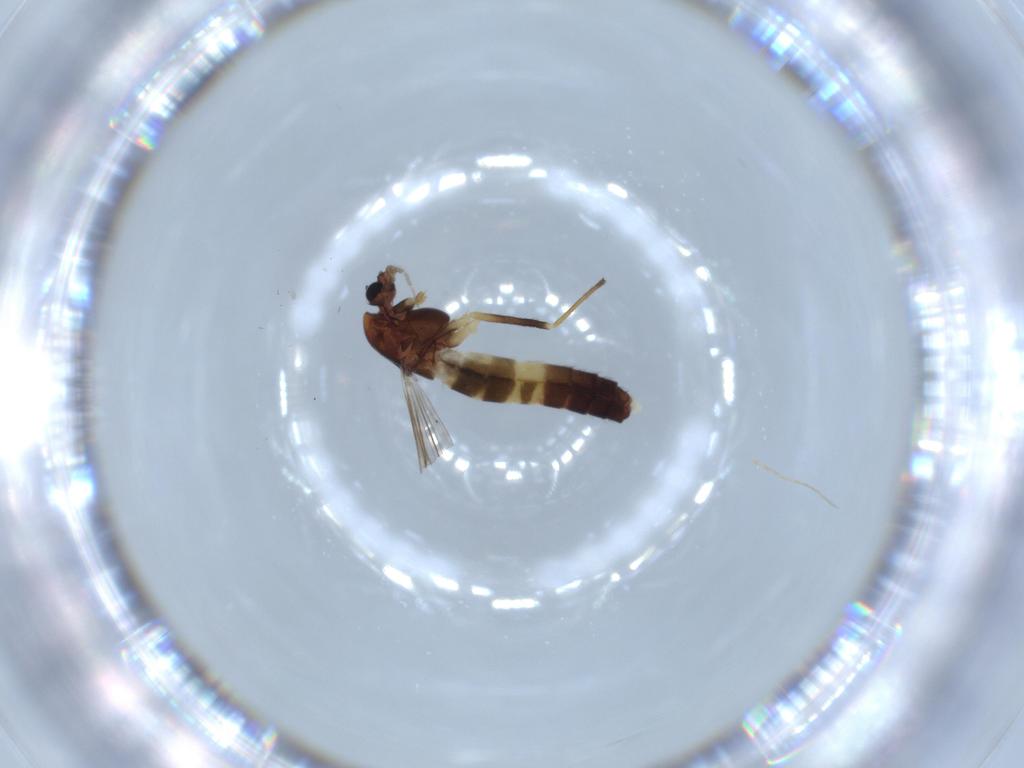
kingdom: Animalia
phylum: Arthropoda
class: Insecta
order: Diptera
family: Chironomidae
